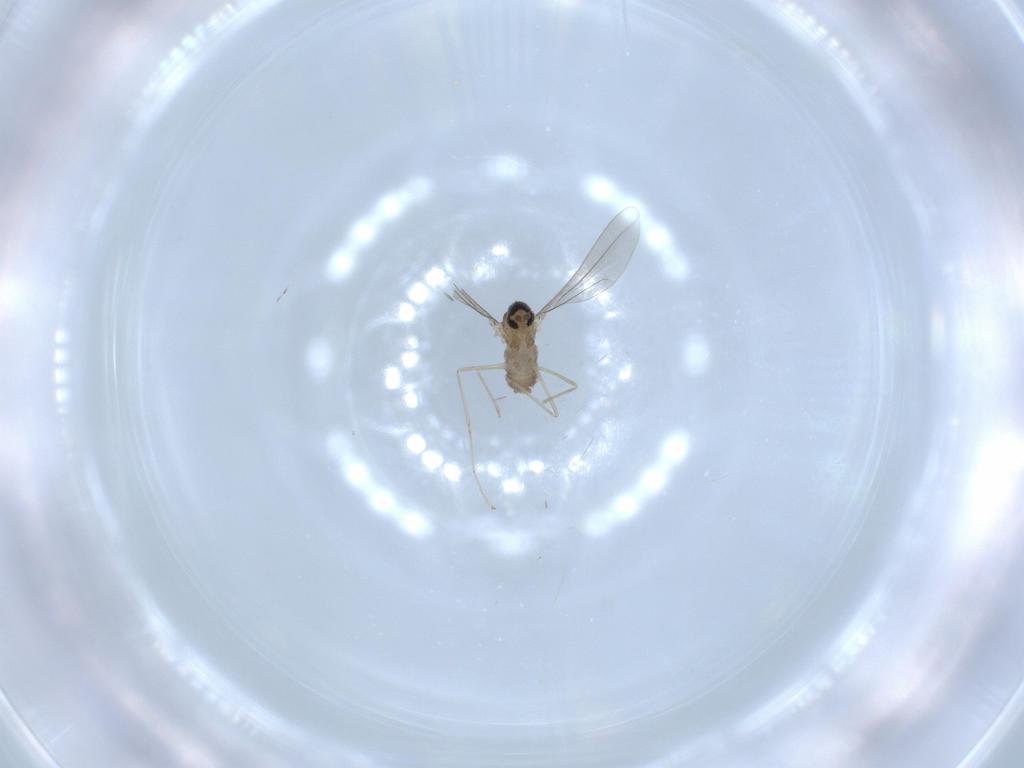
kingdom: Animalia
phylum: Arthropoda
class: Insecta
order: Diptera
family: Cecidomyiidae
